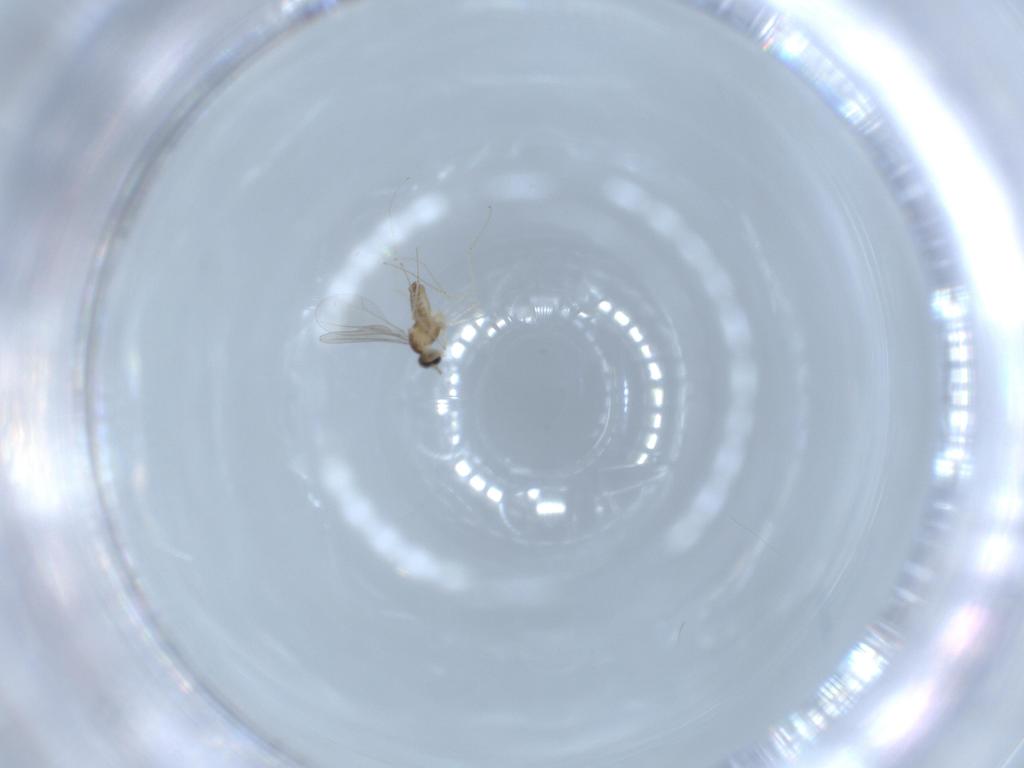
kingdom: Animalia
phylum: Arthropoda
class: Insecta
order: Diptera
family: Cecidomyiidae
